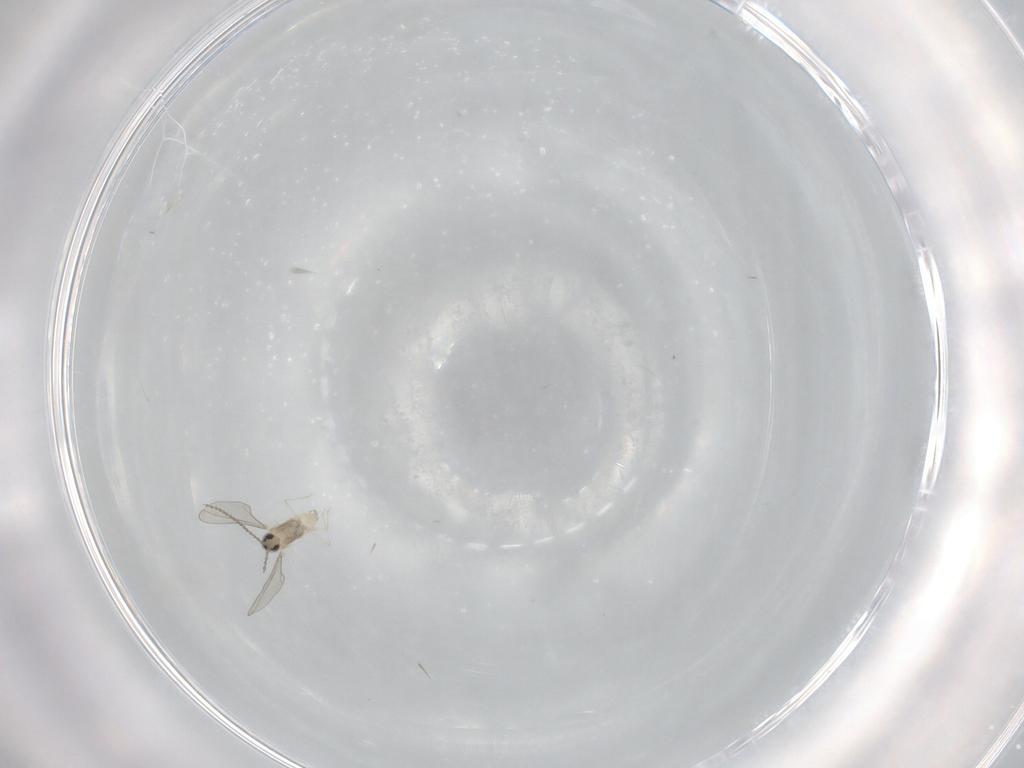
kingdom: Animalia
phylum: Arthropoda
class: Insecta
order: Diptera
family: Cecidomyiidae
